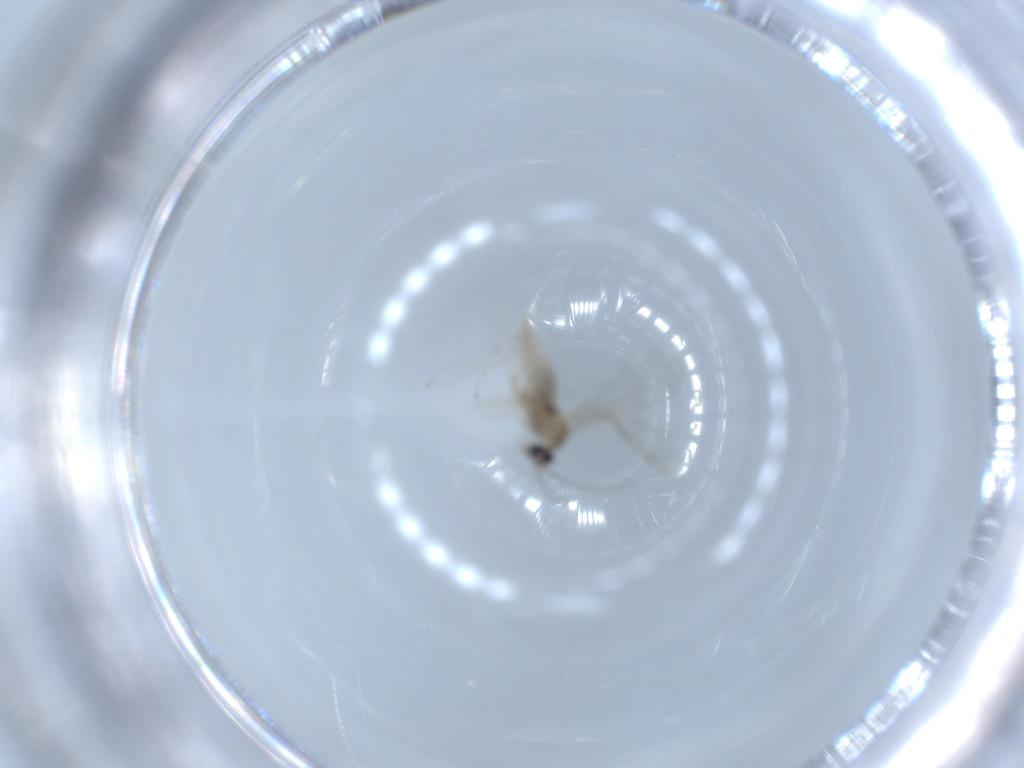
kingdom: Animalia
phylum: Arthropoda
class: Insecta
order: Diptera
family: Cecidomyiidae
